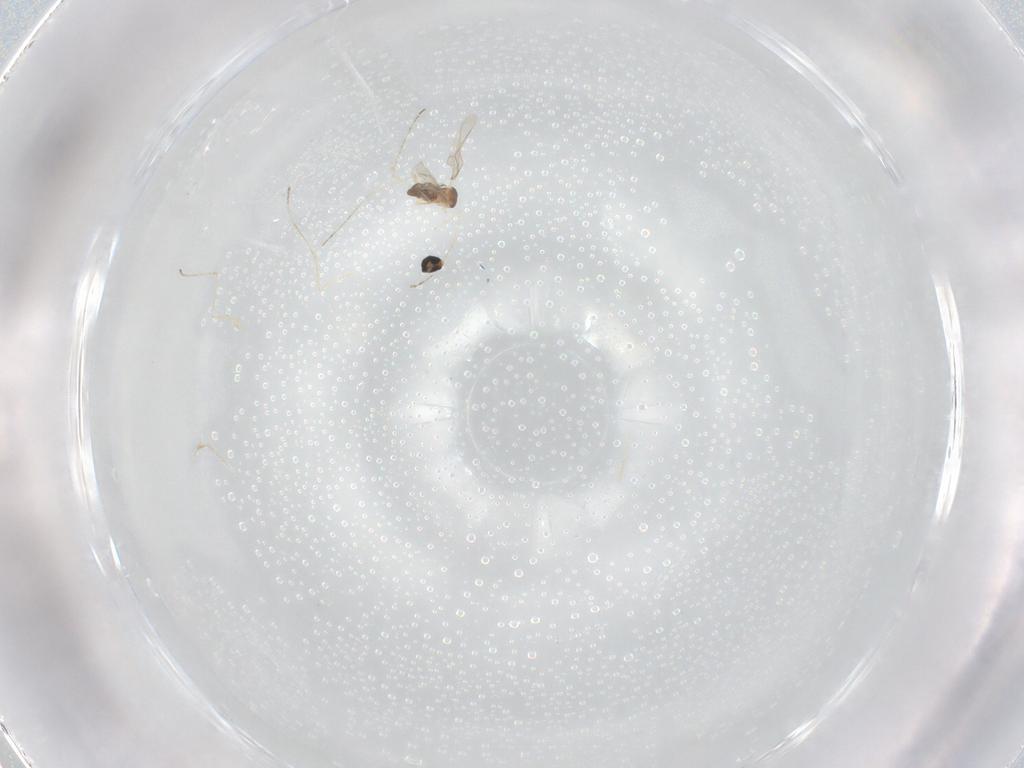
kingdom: Animalia
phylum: Arthropoda
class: Insecta
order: Diptera
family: Cecidomyiidae
